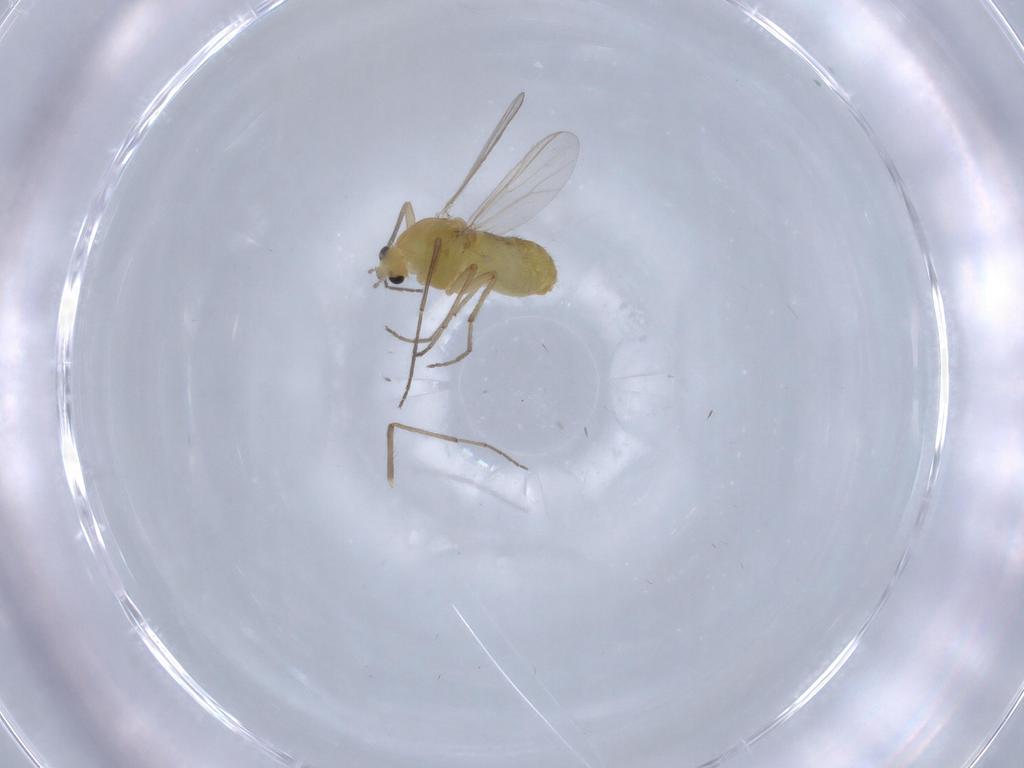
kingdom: Animalia
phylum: Arthropoda
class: Insecta
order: Diptera
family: Chironomidae
